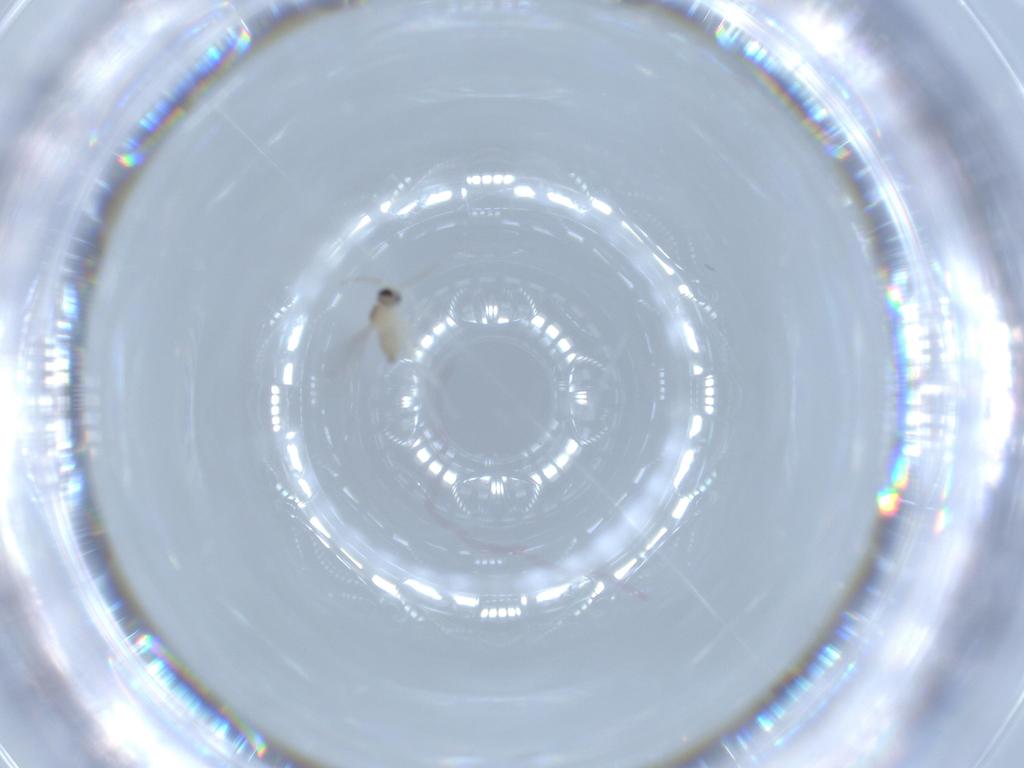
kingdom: Animalia
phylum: Arthropoda
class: Insecta
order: Diptera
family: Cecidomyiidae
